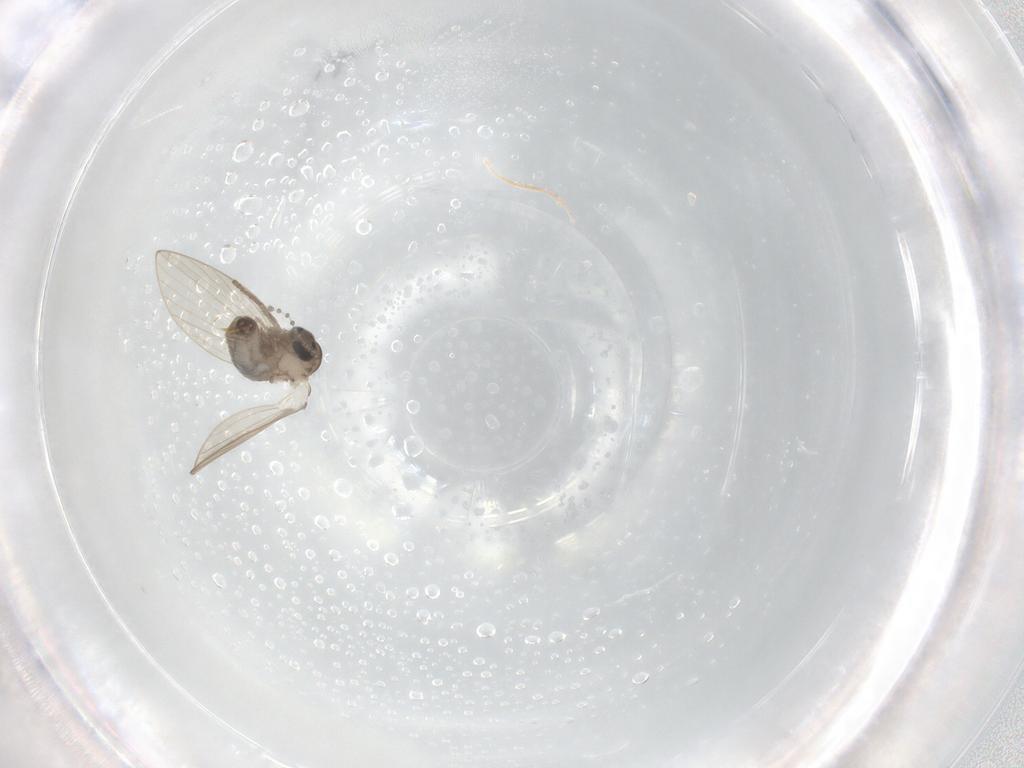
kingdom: Animalia
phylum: Arthropoda
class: Insecta
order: Diptera
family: Psychodidae
